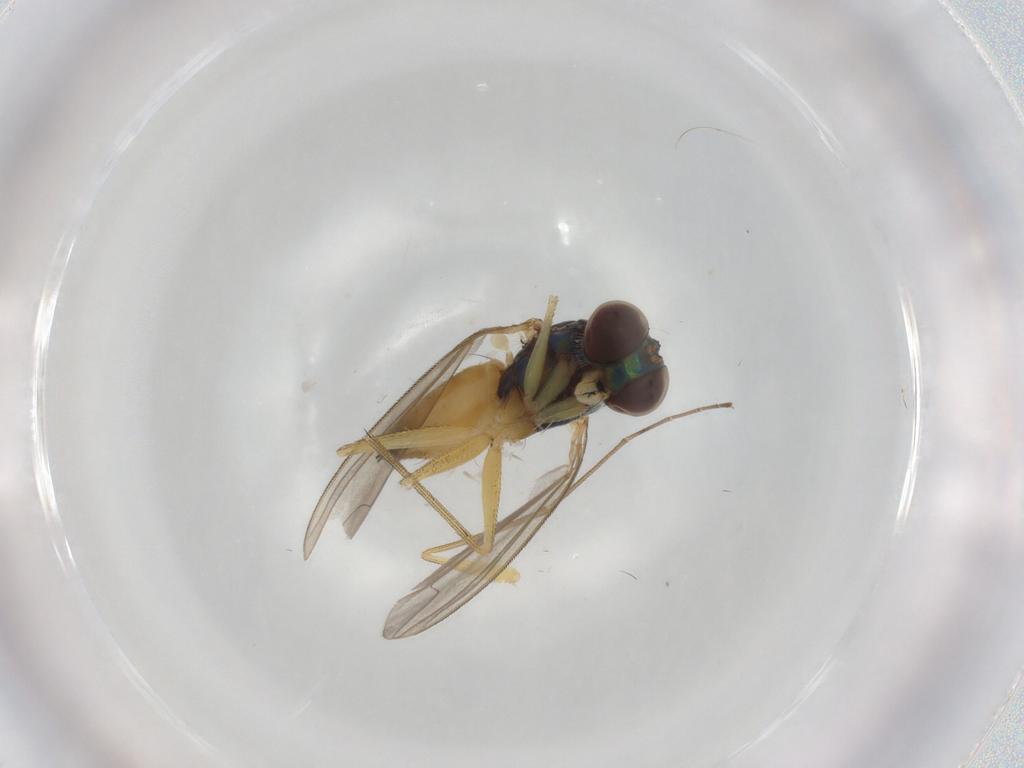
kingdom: Animalia
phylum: Arthropoda
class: Insecta
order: Diptera
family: Dolichopodidae
